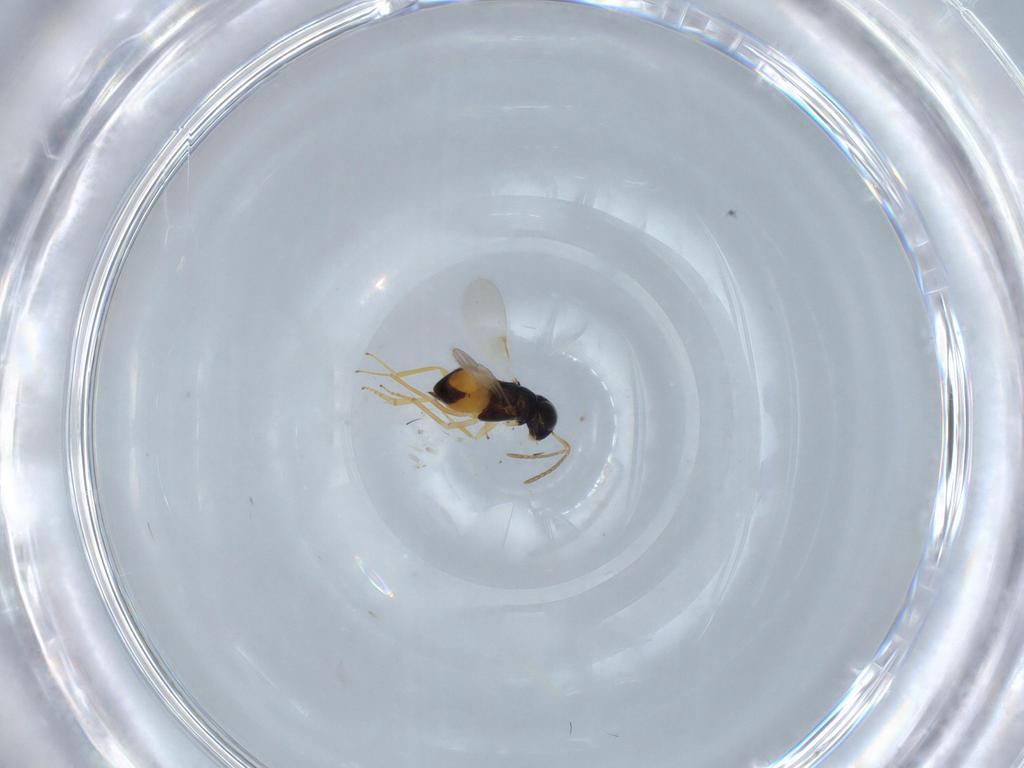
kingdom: Animalia
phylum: Arthropoda
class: Insecta
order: Hymenoptera
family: Encyrtidae
